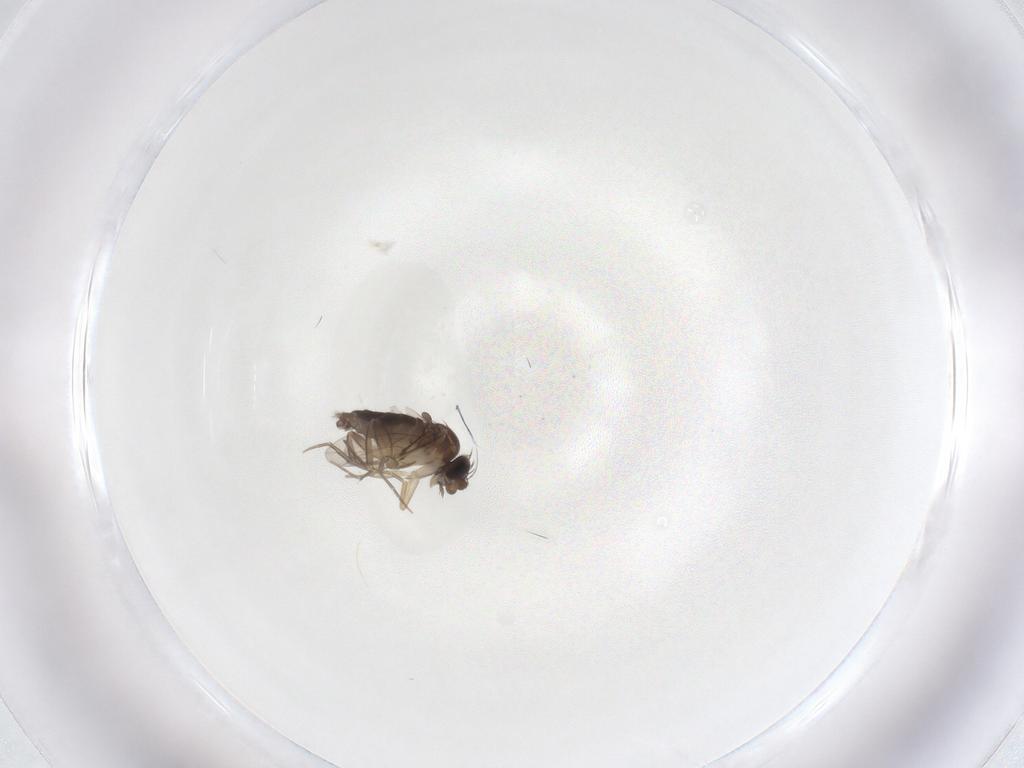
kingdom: Animalia
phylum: Arthropoda
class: Insecta
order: Diptera
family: Phoridae
